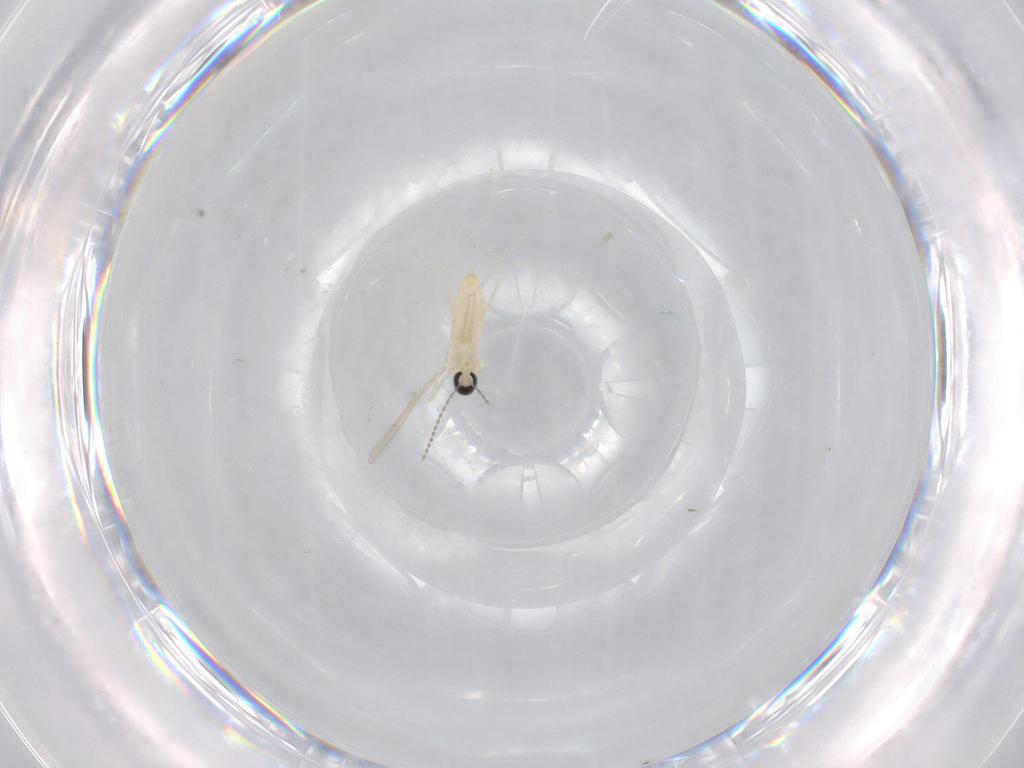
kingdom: Animalia
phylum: Arthropoda
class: Insecta
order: Diptera
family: Cecidomyiidae
